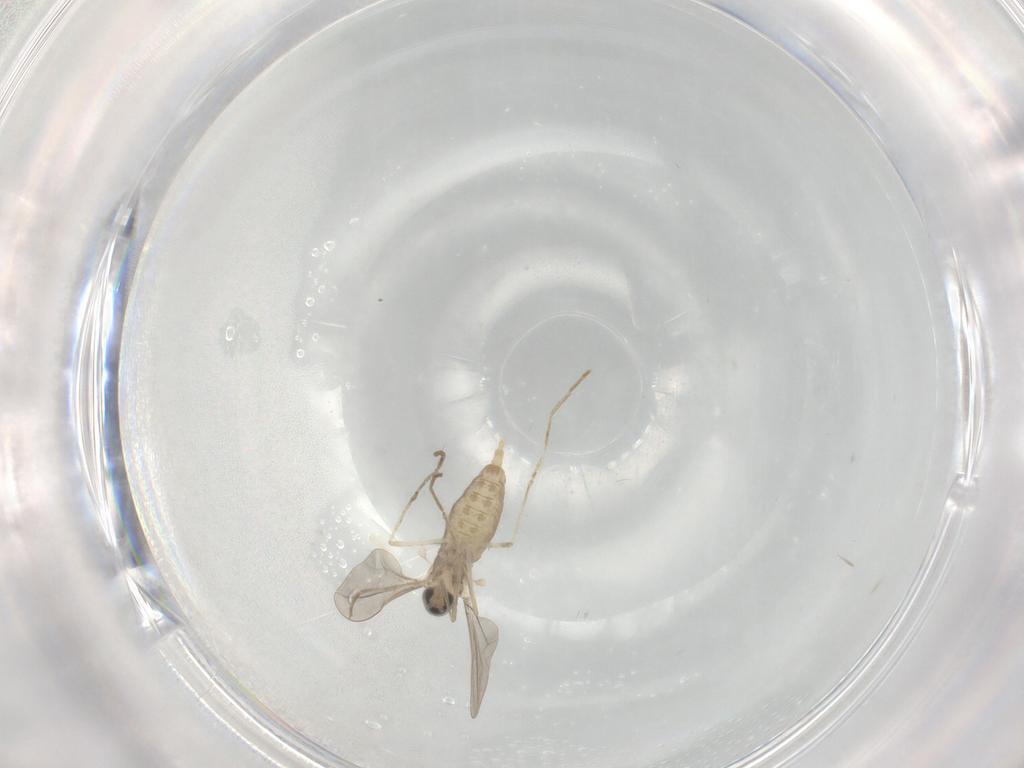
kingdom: Animalia
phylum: Arthropoda
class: Insecta
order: Diptera
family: Cecidomyiidae
